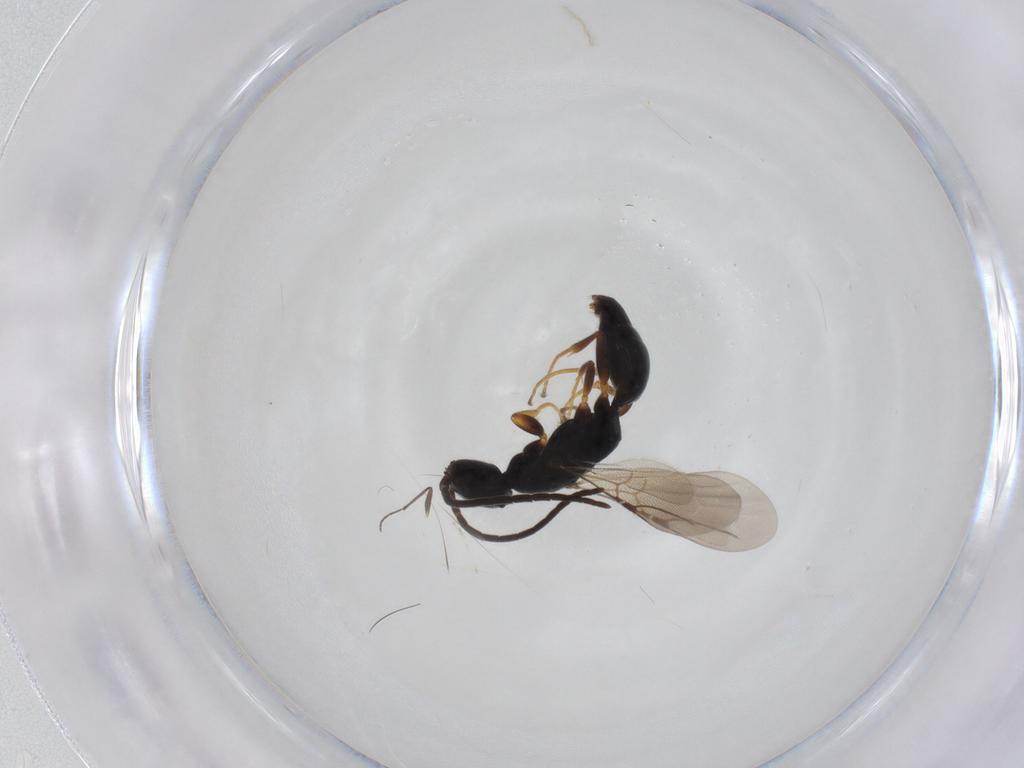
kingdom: Animalia
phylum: Arthropoda
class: Insecta
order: Hymenoptera
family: Bethylidae
